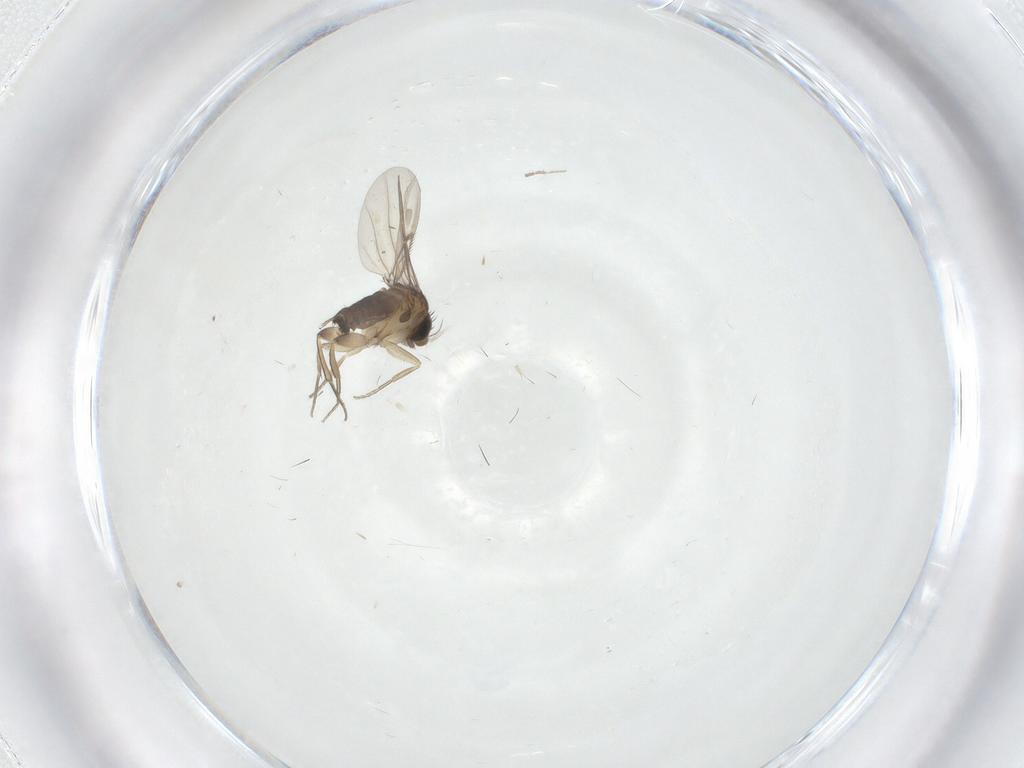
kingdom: Animalia
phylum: Arthropoda
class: Insecta
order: Diptera
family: Chironomidae
